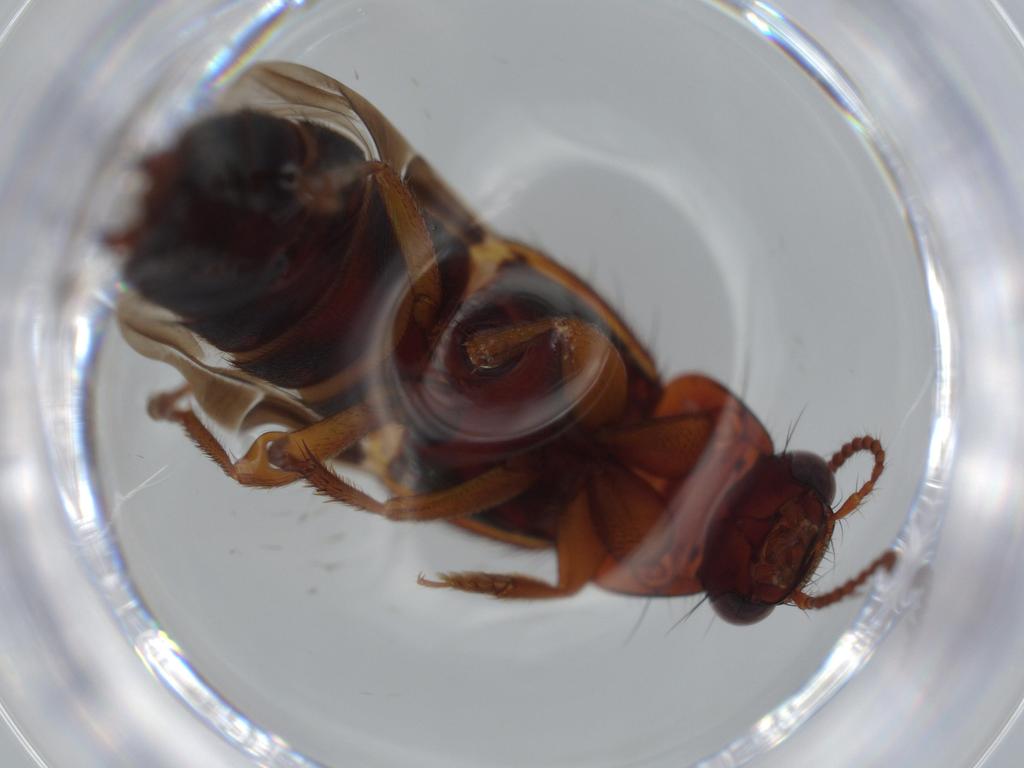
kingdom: Animalia
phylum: Arthropoda
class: Insecta
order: Coleoptera
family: Staphylinidae
